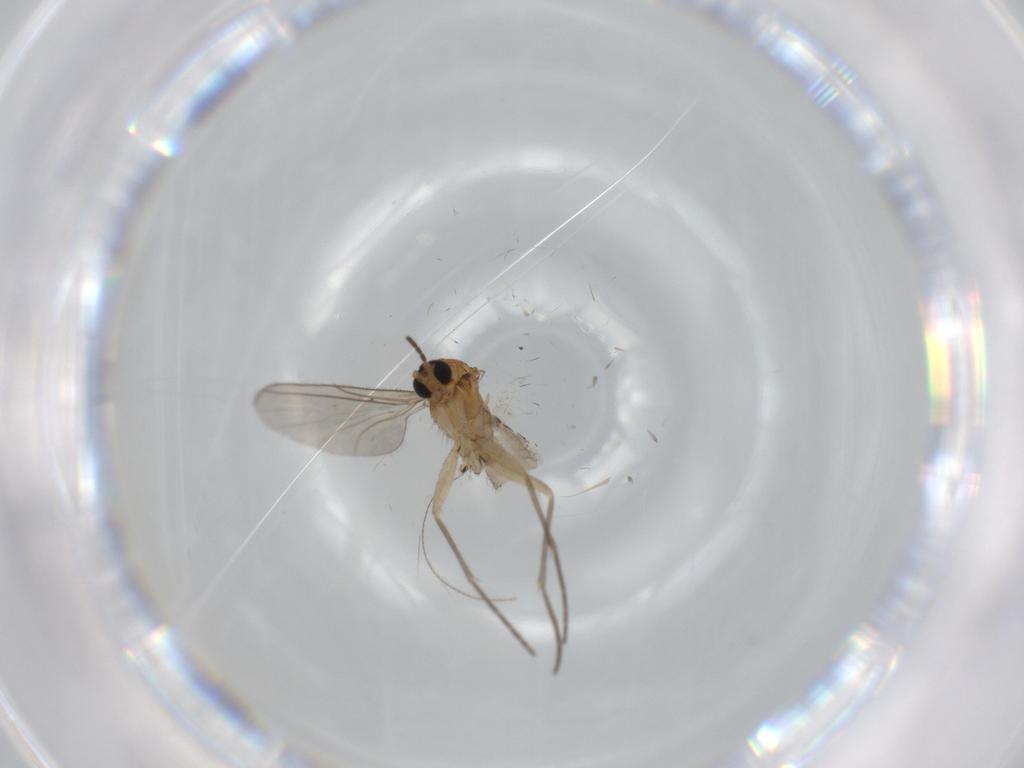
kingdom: Animalia
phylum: Arthropoda
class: Insecta
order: Diptera
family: Sciaridae
